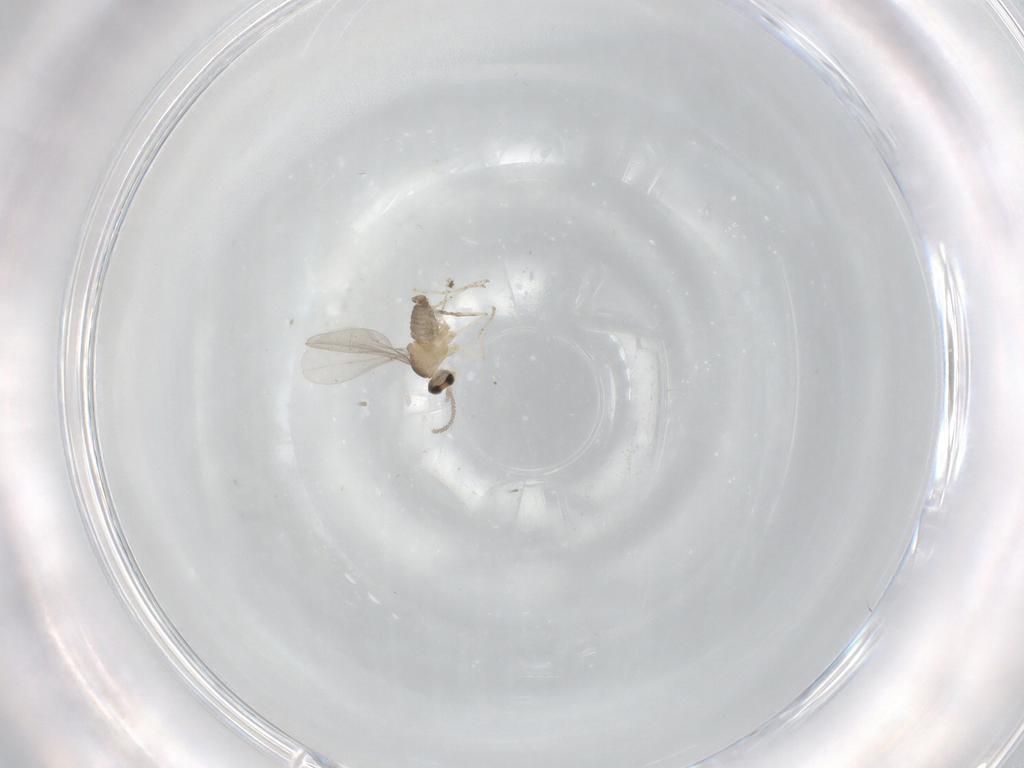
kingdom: Animalia
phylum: Arthropoda
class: Insecta
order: Diptera
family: Cecidomyiidae
